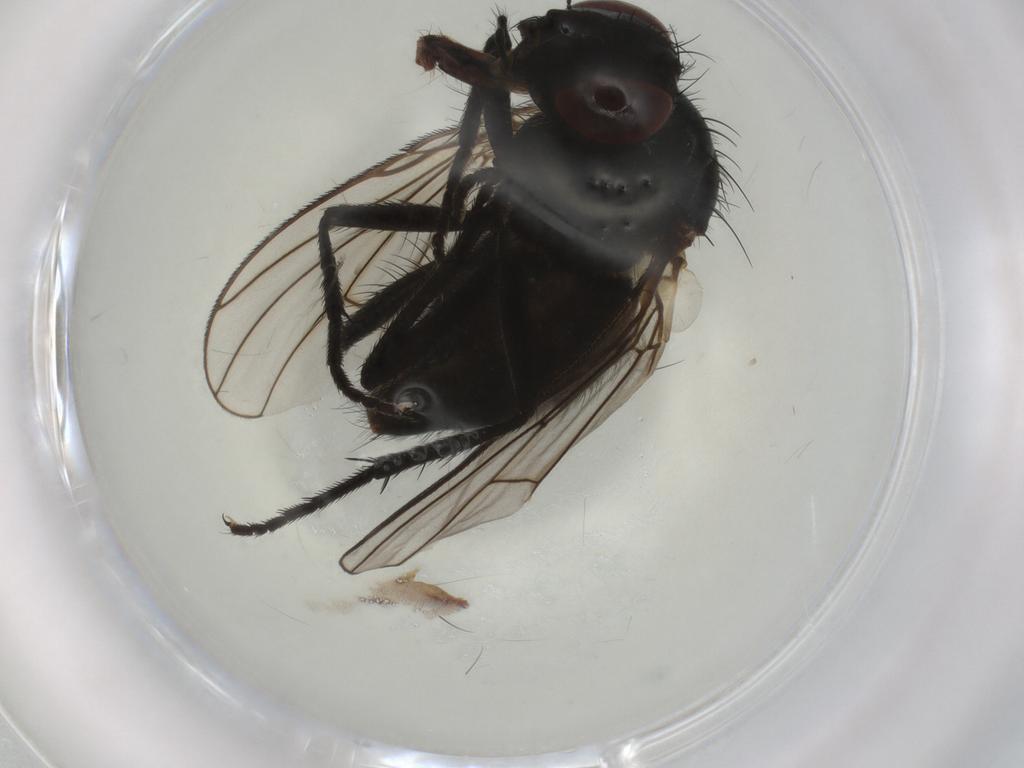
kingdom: Animalia
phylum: Arthropoda
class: Insecta
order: Diptera
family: Muscidae
